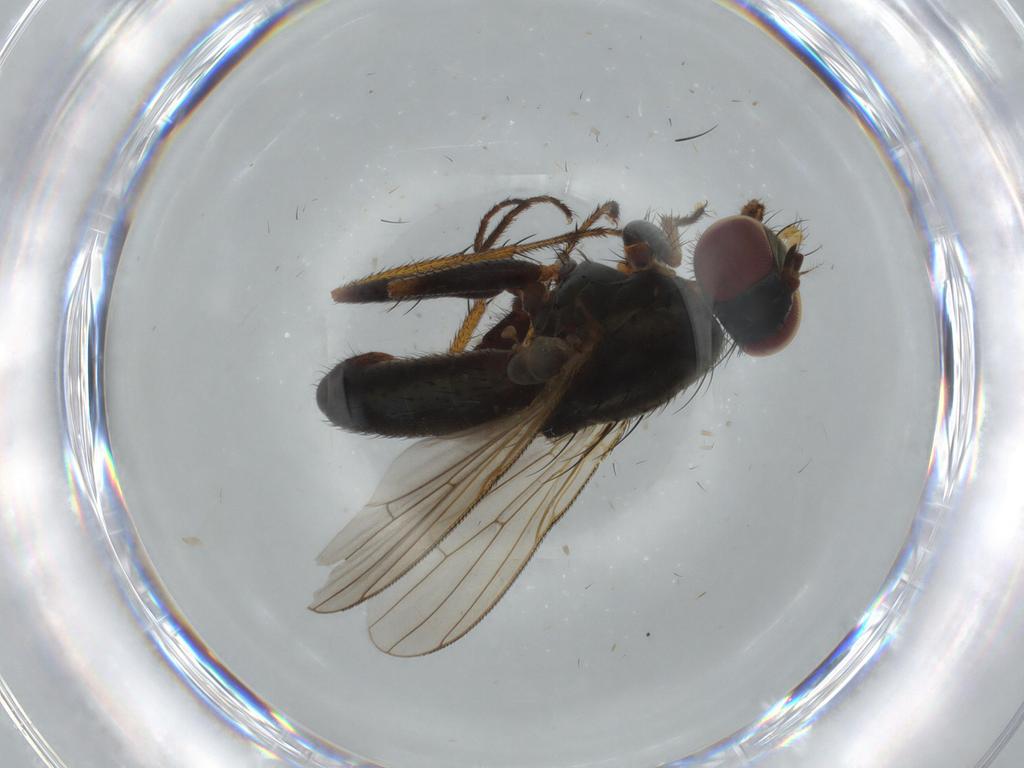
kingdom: Animalia
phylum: Arthropoda
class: Insecta
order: Diptera
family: Muscidae
